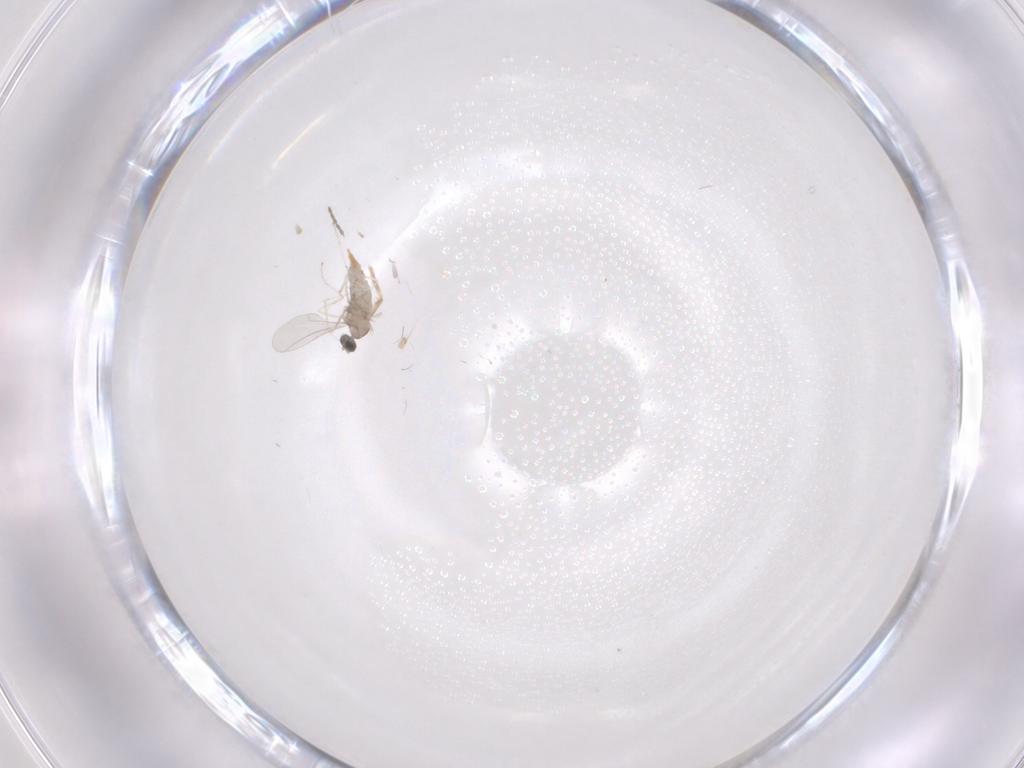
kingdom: Animalia
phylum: Arthropoda
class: Insecta
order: Diptera
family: Cecidomyiidae
